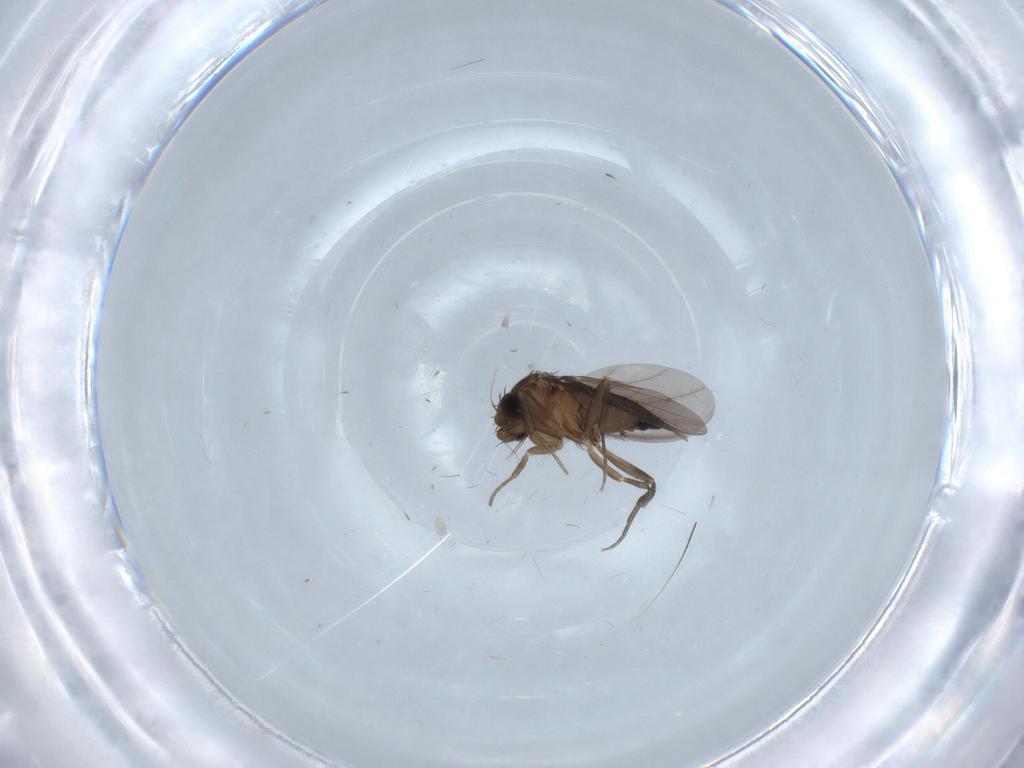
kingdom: Animalia
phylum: Arthropoda
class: Insecta
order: Diptera
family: Phoridae
